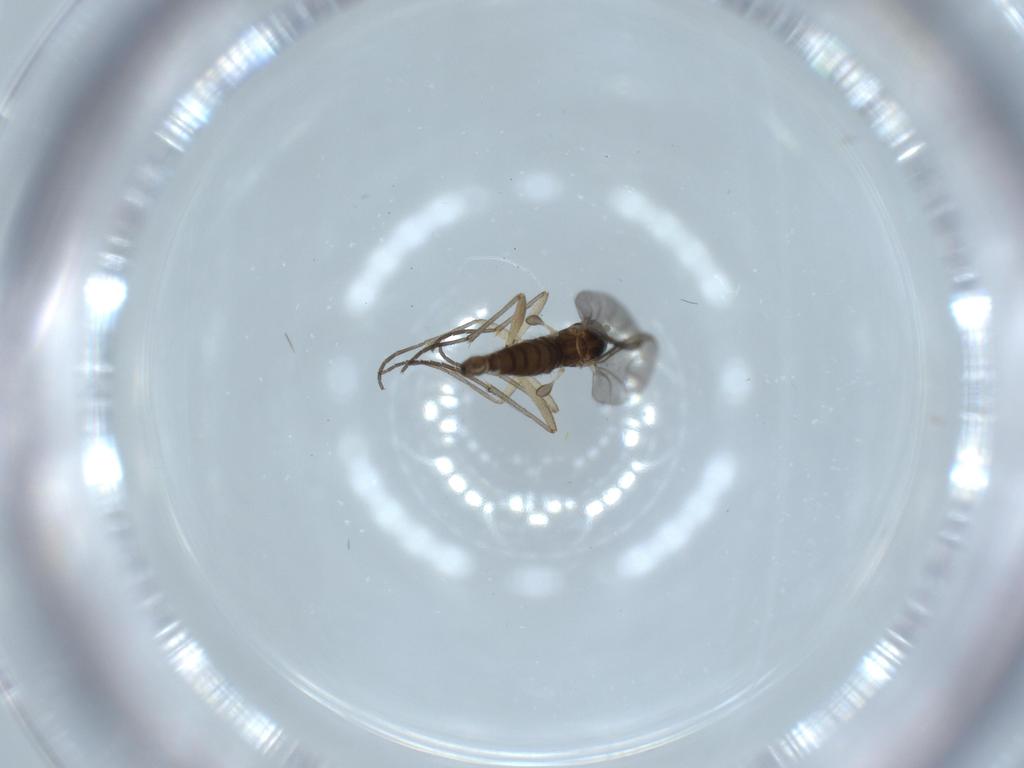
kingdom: Animalia
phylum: Arthropoda
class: Insecta
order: Diptera
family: Sciaridae
